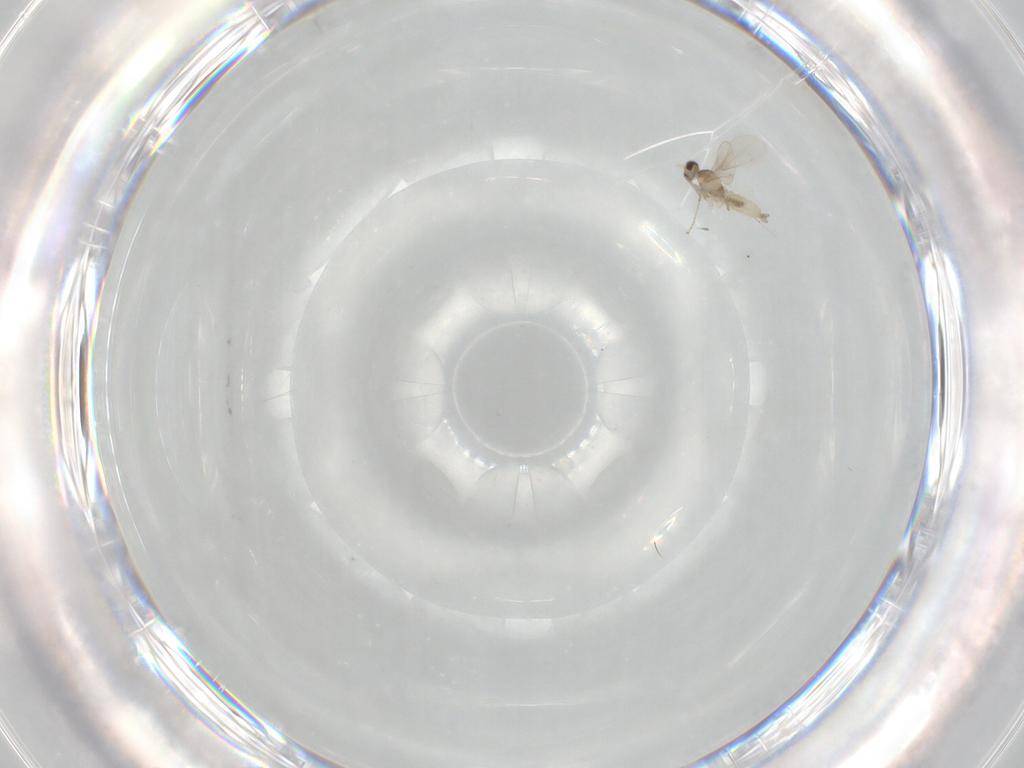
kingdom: Animalia
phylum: Arthropoda
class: Insecta
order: Diptera
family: Cecidomyiidae
